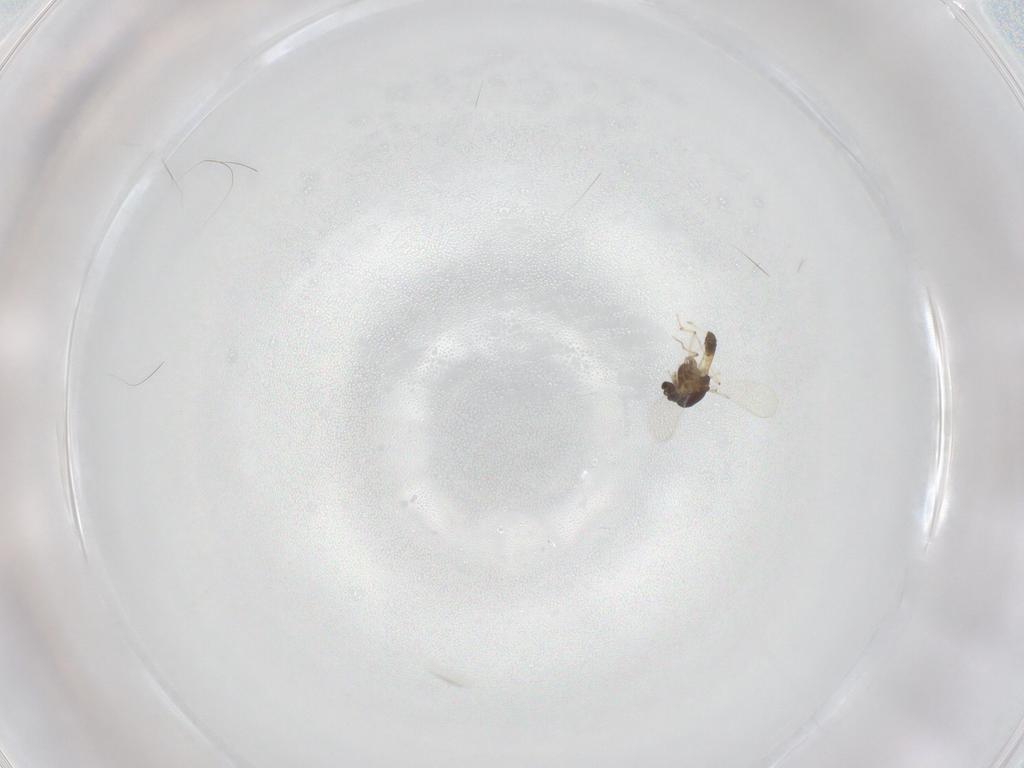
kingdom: Animalia
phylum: Arthropoda
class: Insecta
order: Diptera
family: Chironomidae
